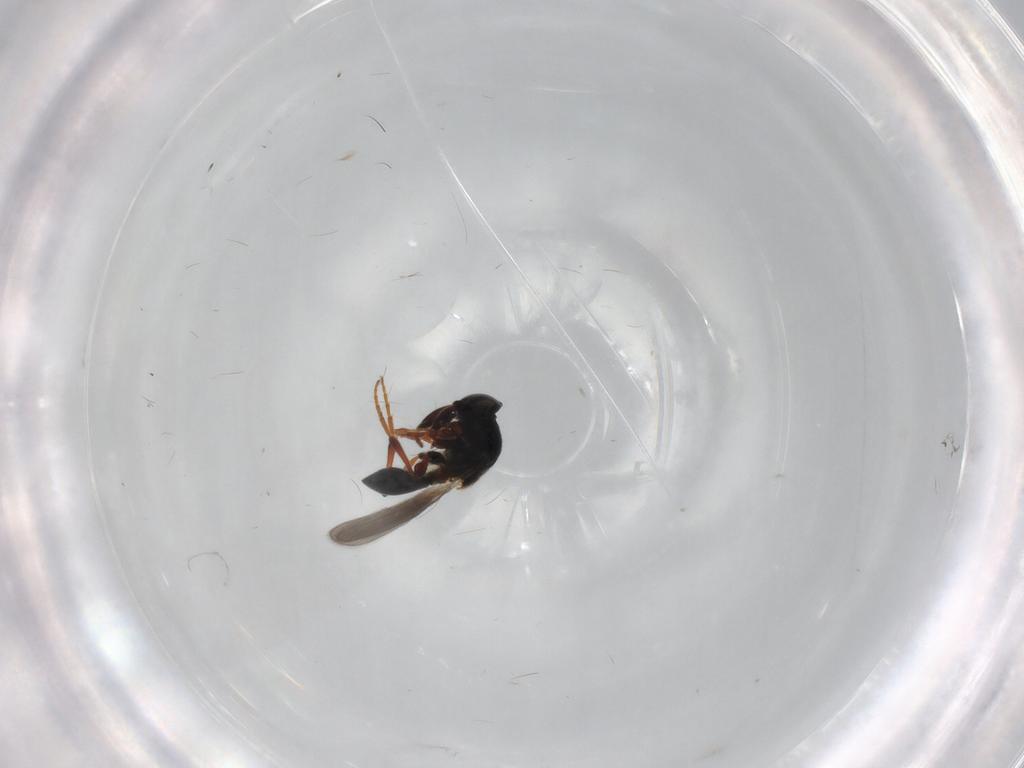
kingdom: Animalia
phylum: Arthropoda
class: Insecta
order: Hymenoptera
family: Platygastridae
